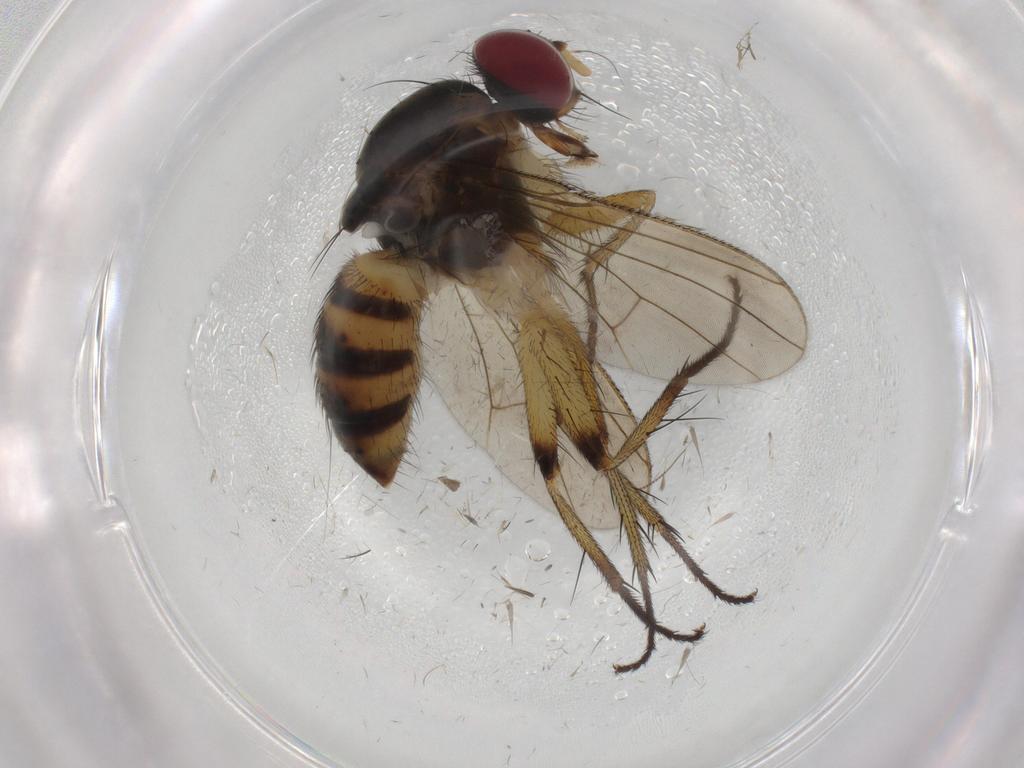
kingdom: Animalia
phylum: Arthropoda
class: Insecta
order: Diptera
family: Muscidae
